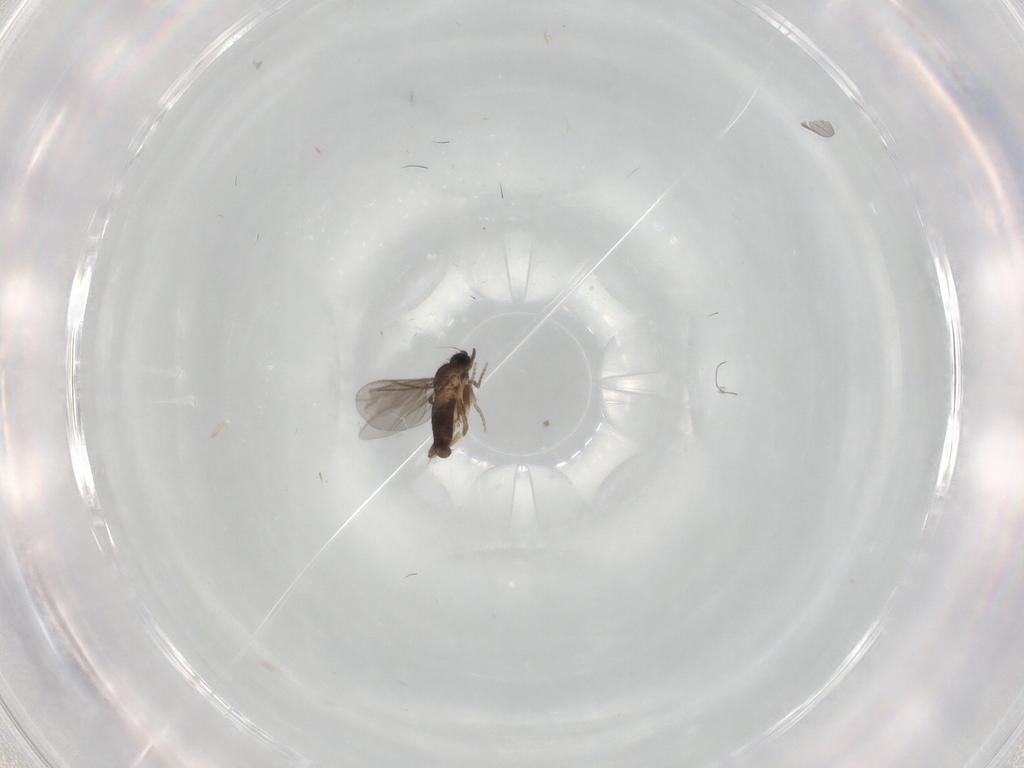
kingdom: Animalia
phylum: Arthropoda
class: Insecta
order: Diptera
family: Phoridae
